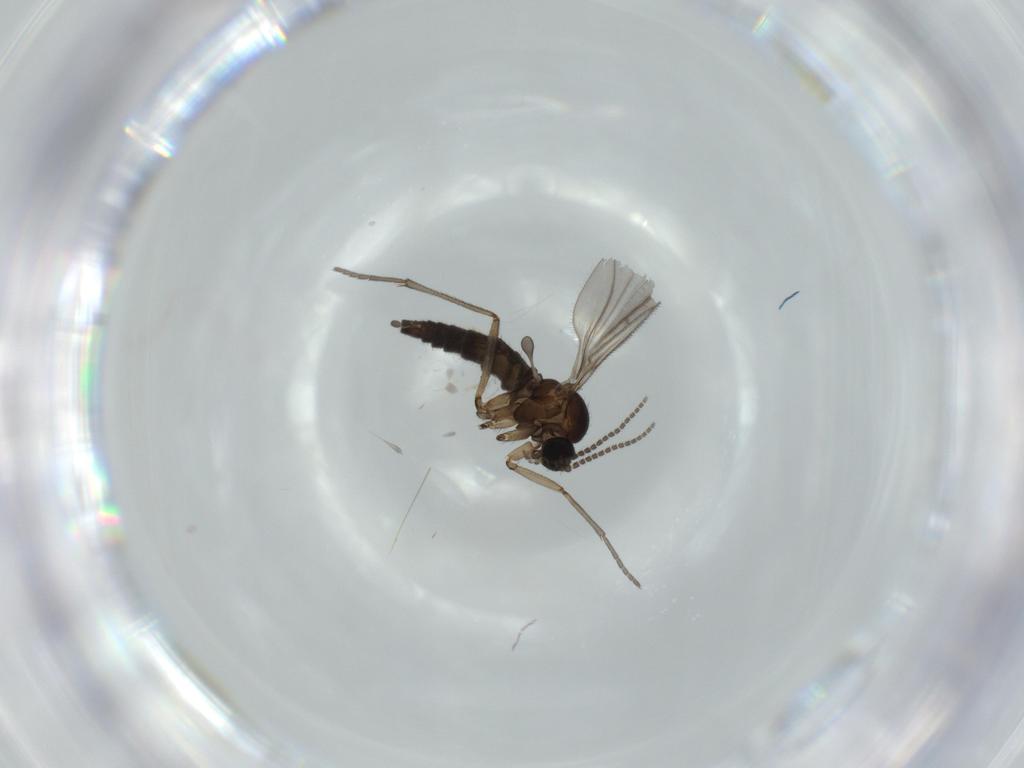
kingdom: Animalia
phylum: Arthropoda
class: Insecta
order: Diptera
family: Sciaridae
